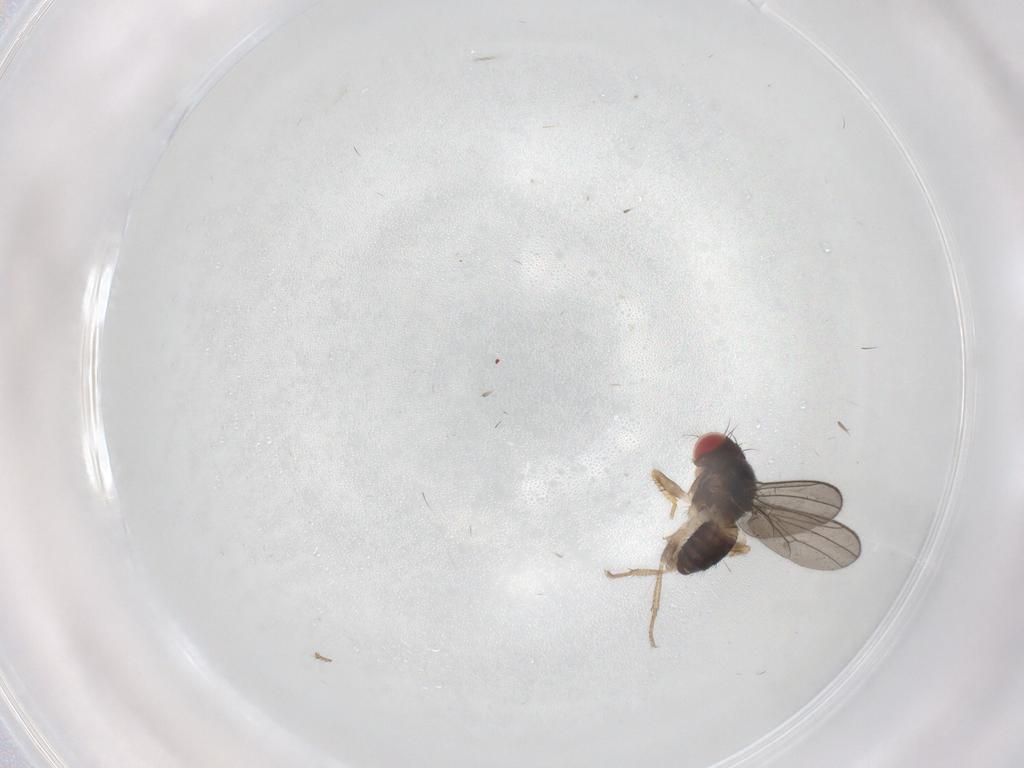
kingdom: Animalia
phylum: Arthropoda
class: Insecta
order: Diptera
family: Drosophilidae
